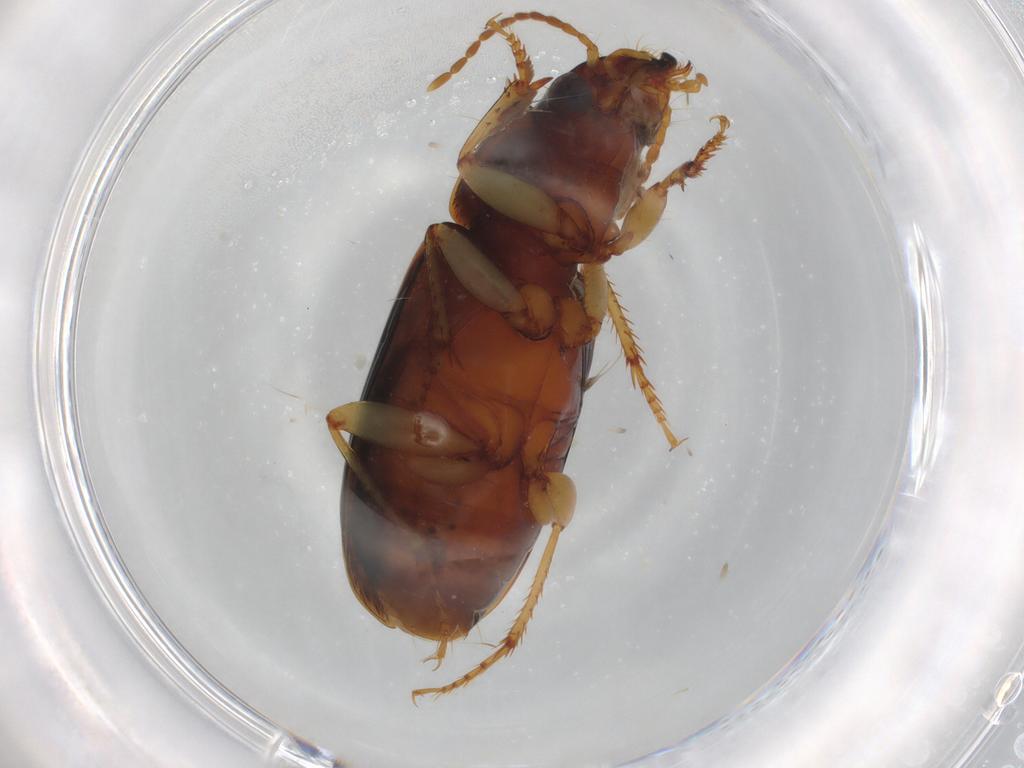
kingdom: Animalia
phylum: Arthropoda
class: Insecta
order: Coleoptera
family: Carabidae
